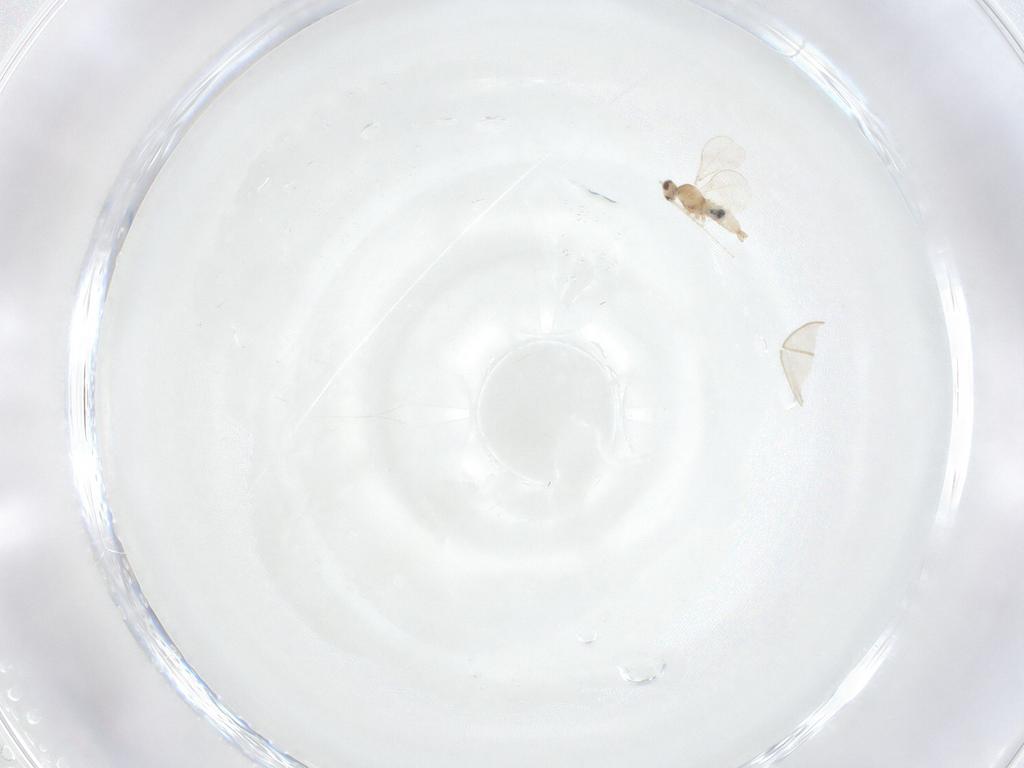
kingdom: Animalia
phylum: Arthropoda
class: Insecta
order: Diptera
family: Cecidomyiidae
